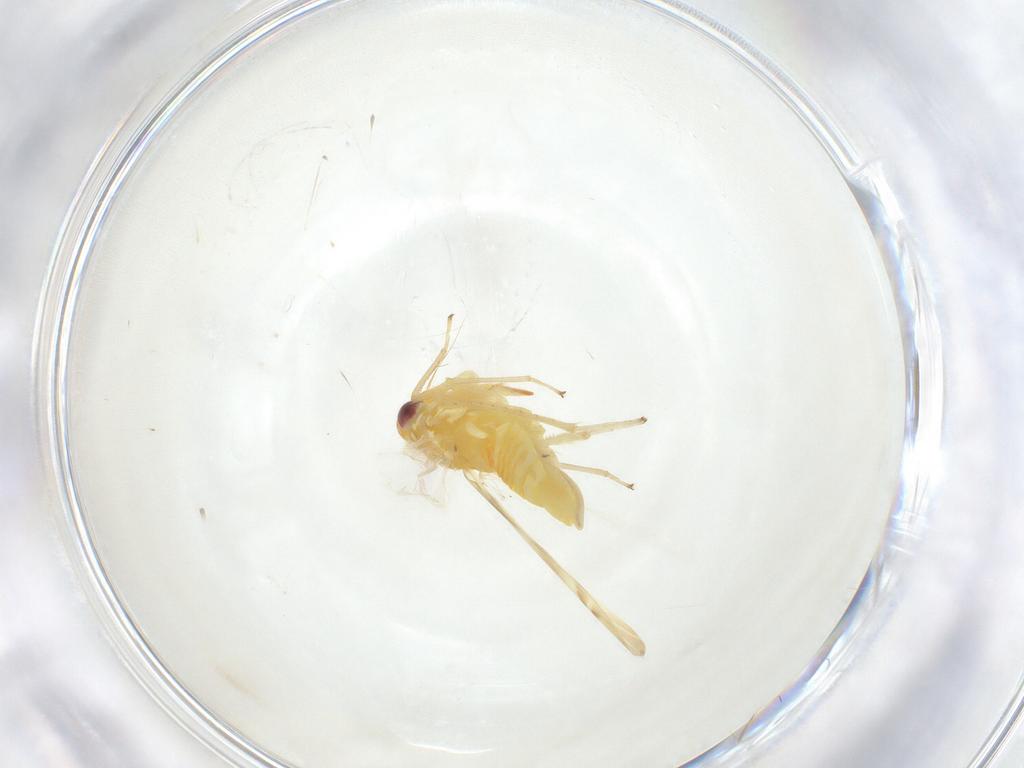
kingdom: Animalia
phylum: Arthropoda
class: Insecta
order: Hemiptera
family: Cicadellidae
